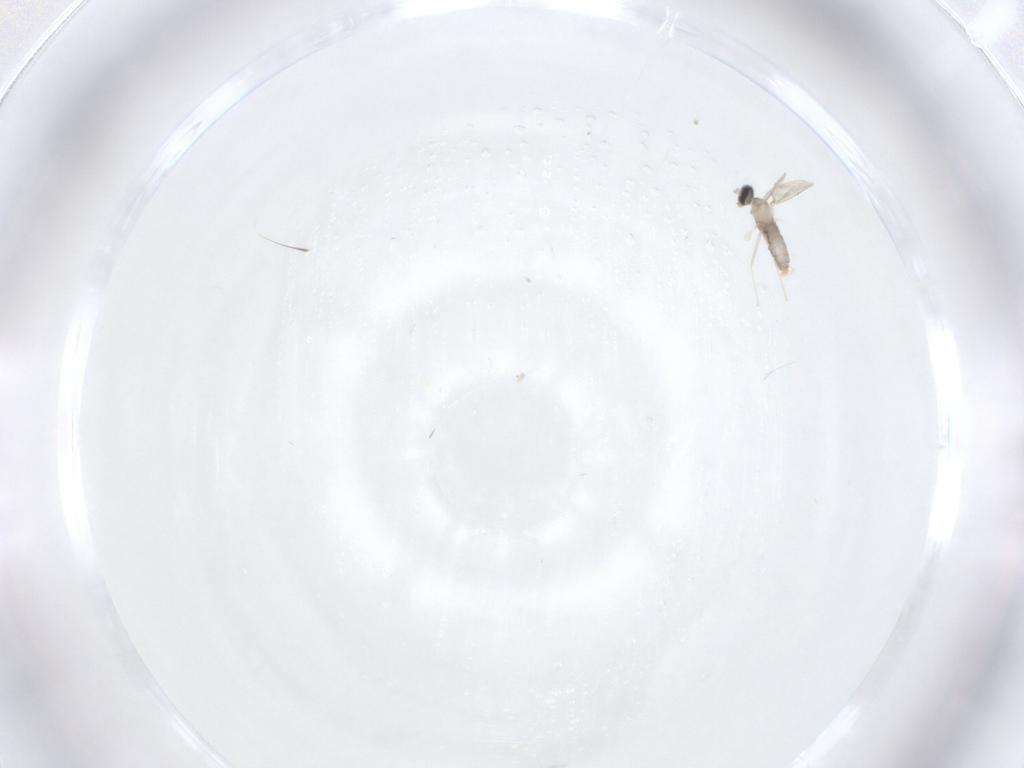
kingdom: Animalia
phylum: Arthropoda
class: Insecta
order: Diptera
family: Cecidomyiidae
